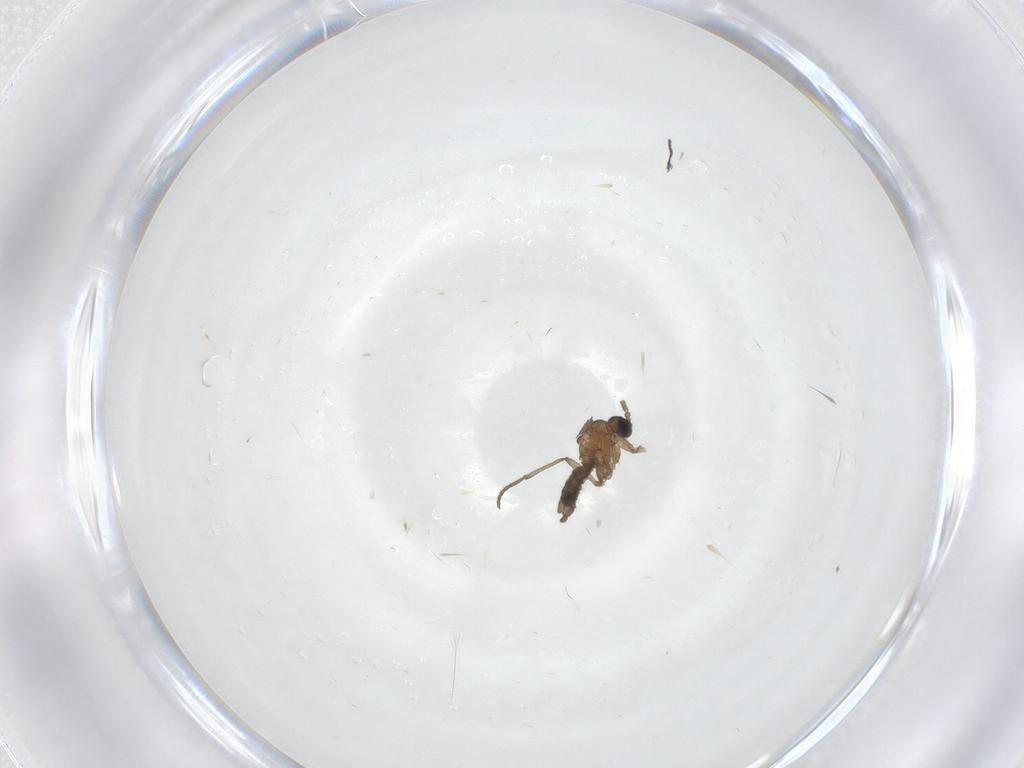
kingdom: Animalia
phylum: Arthropoda
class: Insecta
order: Diptera
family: Sciaridae
